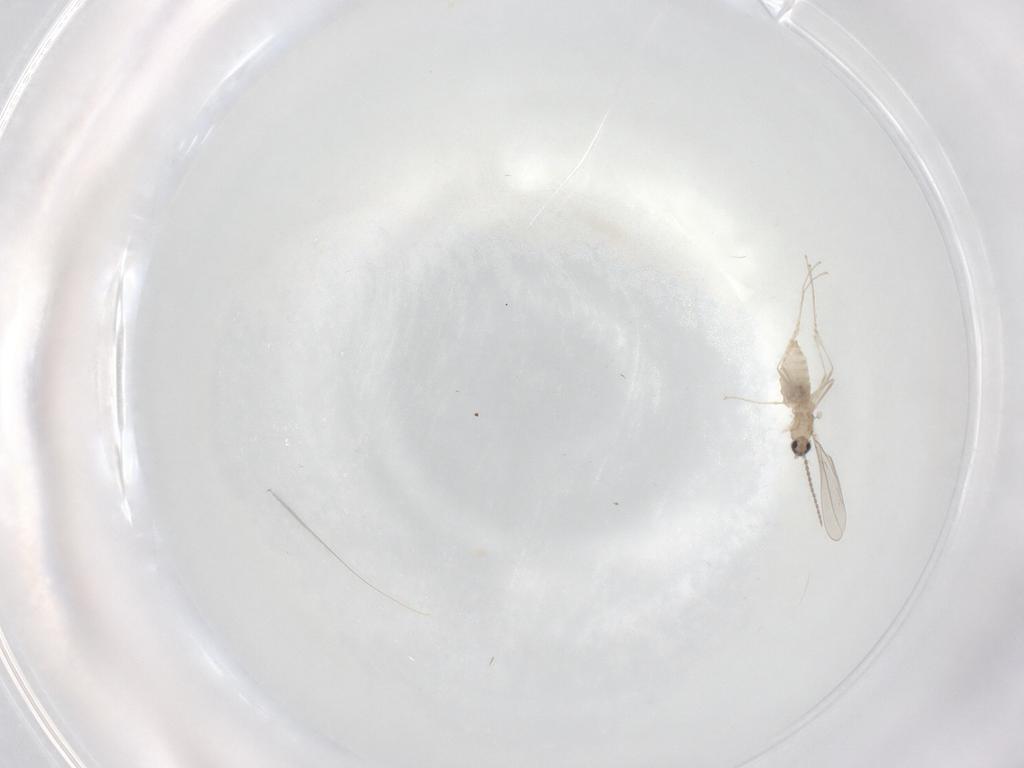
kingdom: Animalia
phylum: Arthropoda
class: Insecta
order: Diptera
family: Cecidomyiidae
